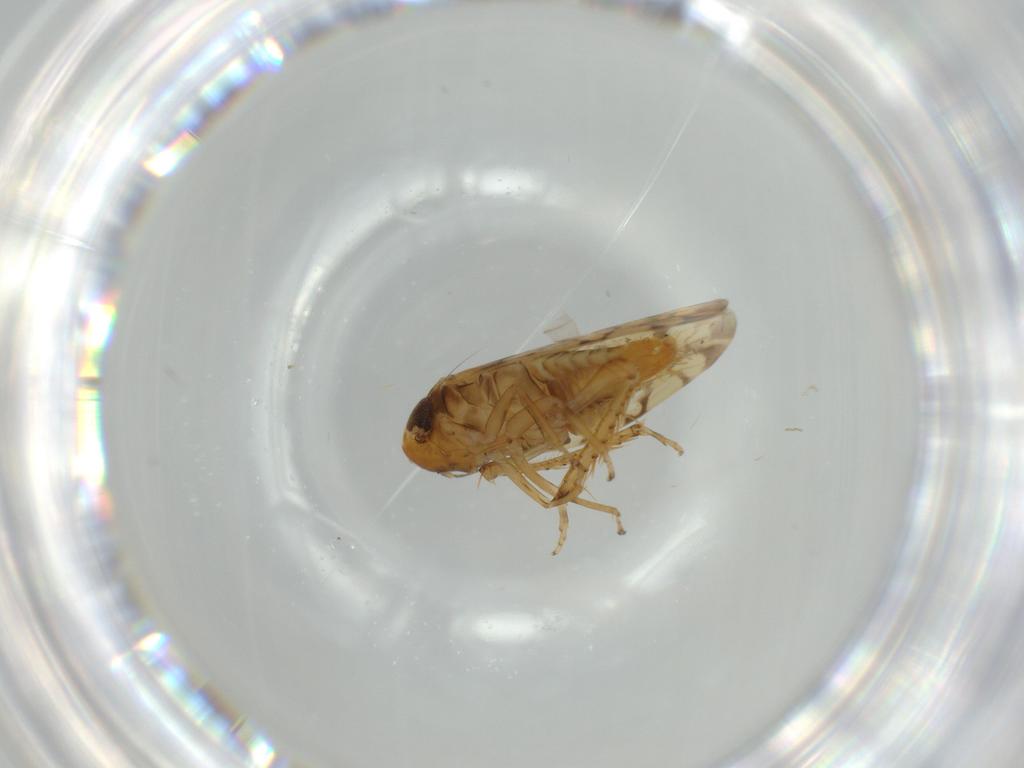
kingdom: Animalia
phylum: Arthropoda
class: Insecta
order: Hemiptera
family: Cicadellidae
